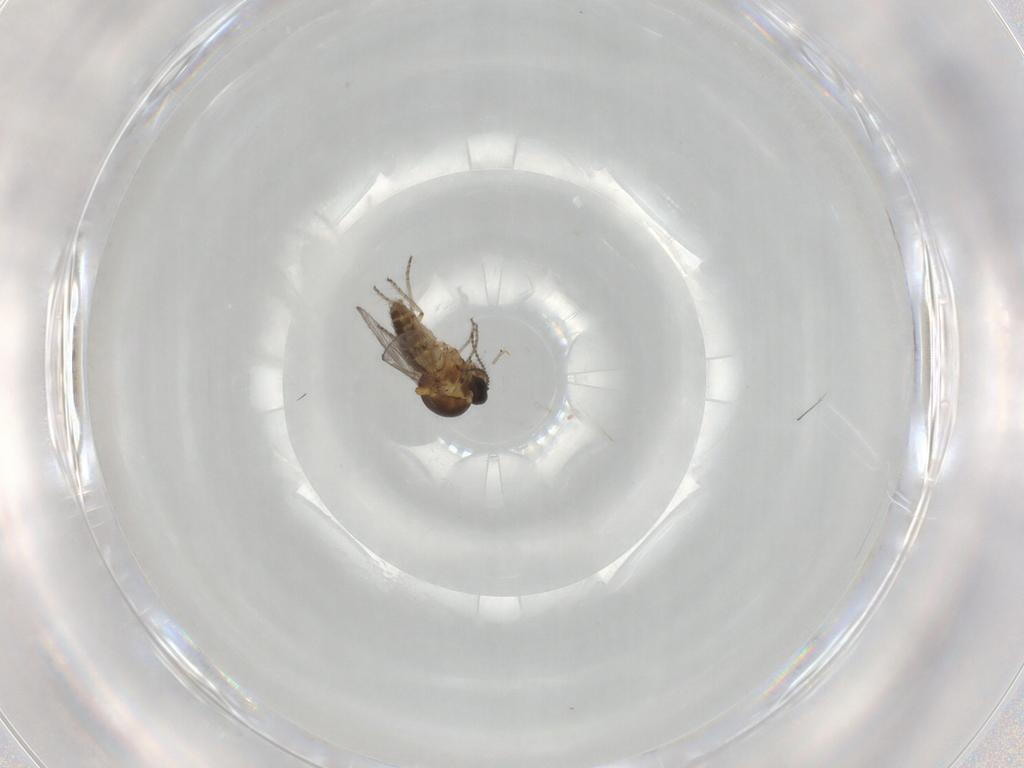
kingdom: Animalia
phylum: Arthropoda
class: Insecta
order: Diptera
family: Ceratopogonidae
